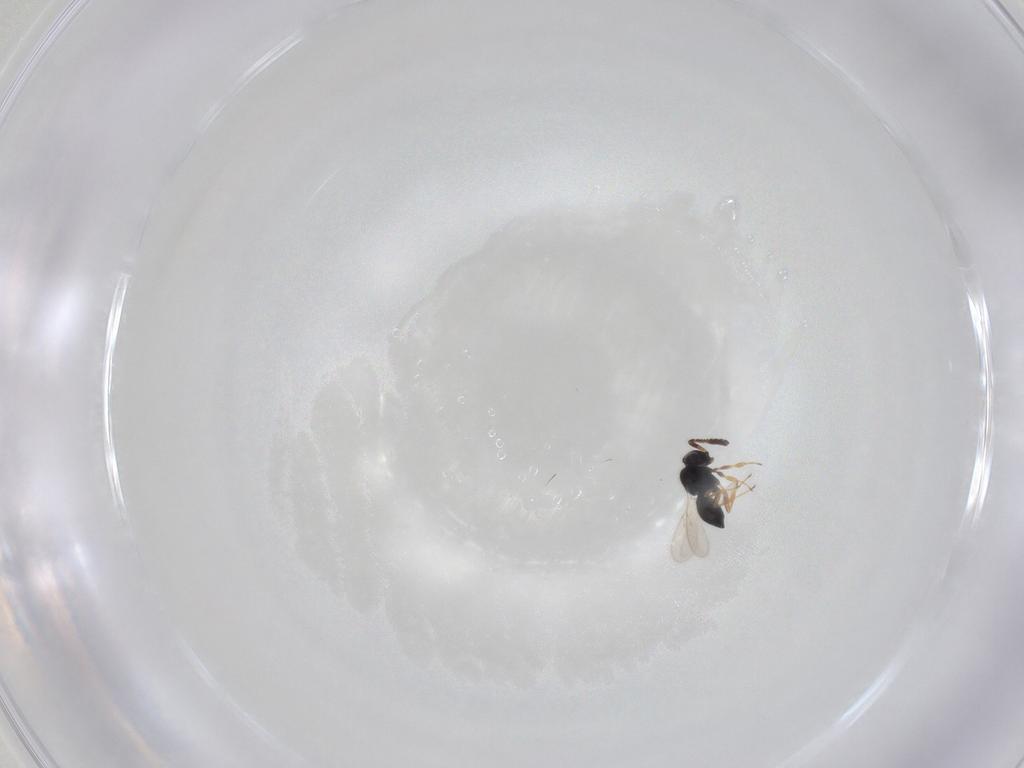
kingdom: Animalia
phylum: Arthropoda
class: Insecta
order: Hymenoptera
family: Scelionidae
